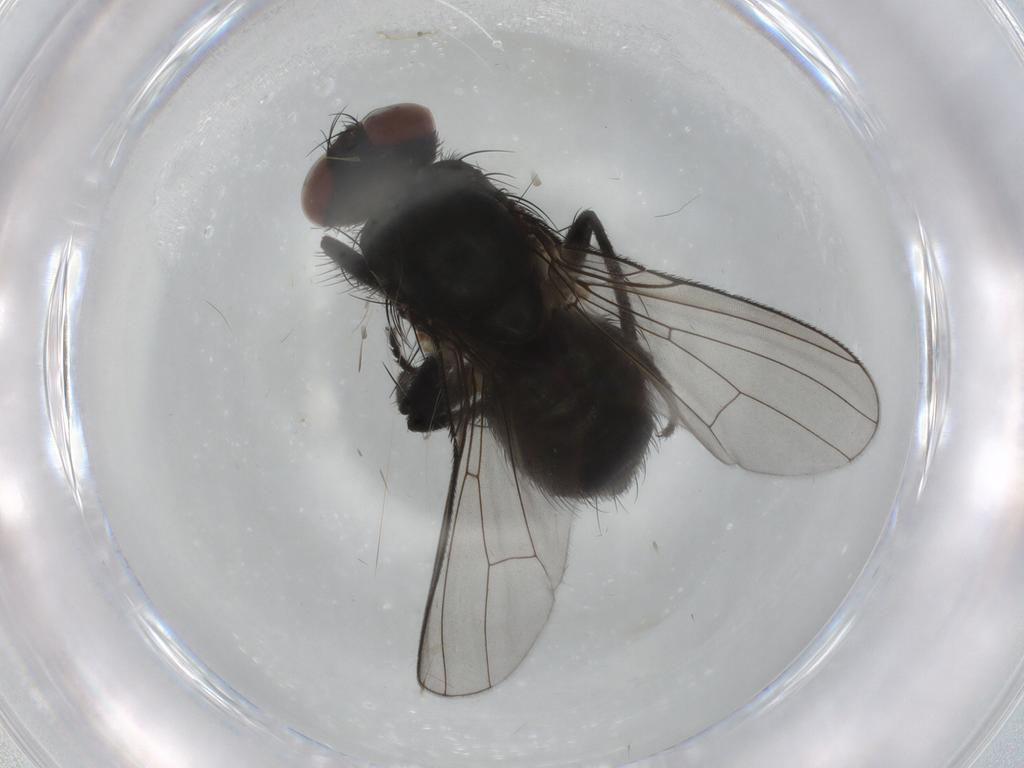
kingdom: Animalia
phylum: Arthropoda
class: Insecta
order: Diptera
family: Muscidae
